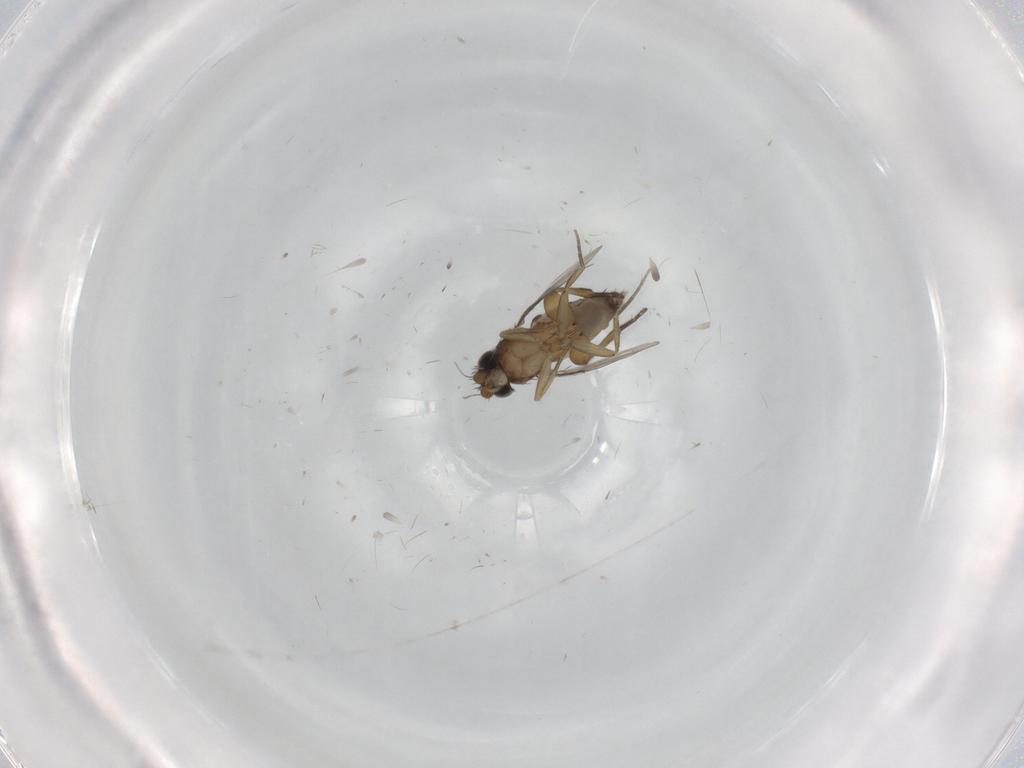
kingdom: Animalia
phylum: Arthropoda
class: Insecta
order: Diptera
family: Phoridae
